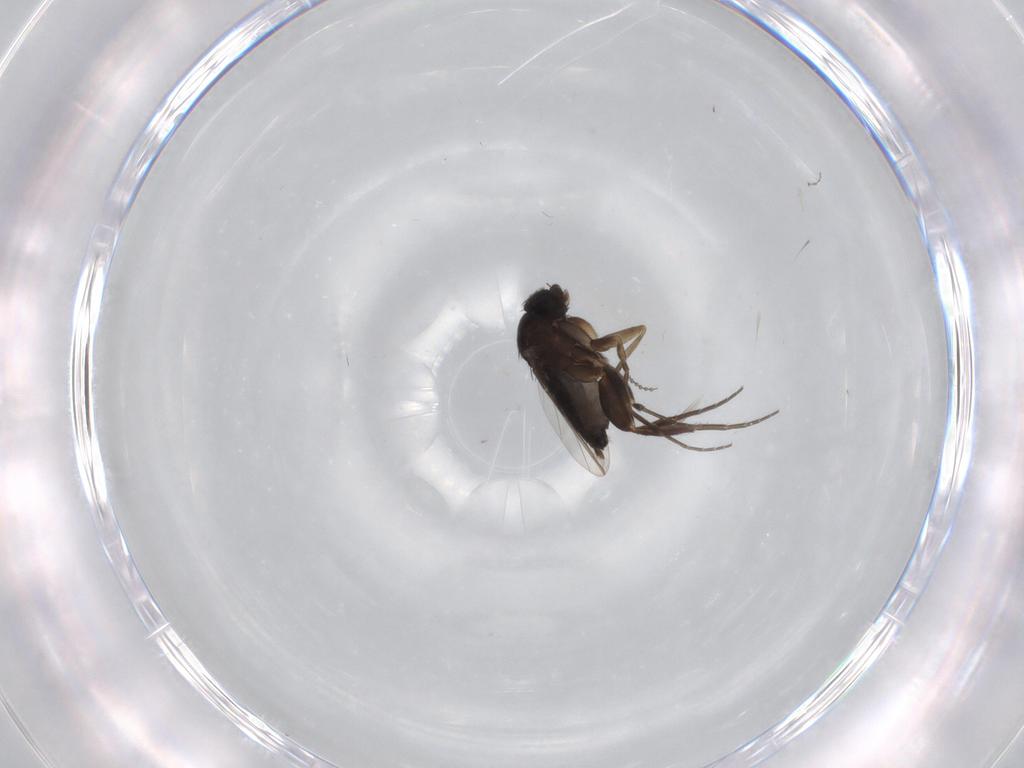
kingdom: Animalia
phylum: Arthropoda
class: Insecta
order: Diptera
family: Phoridae
